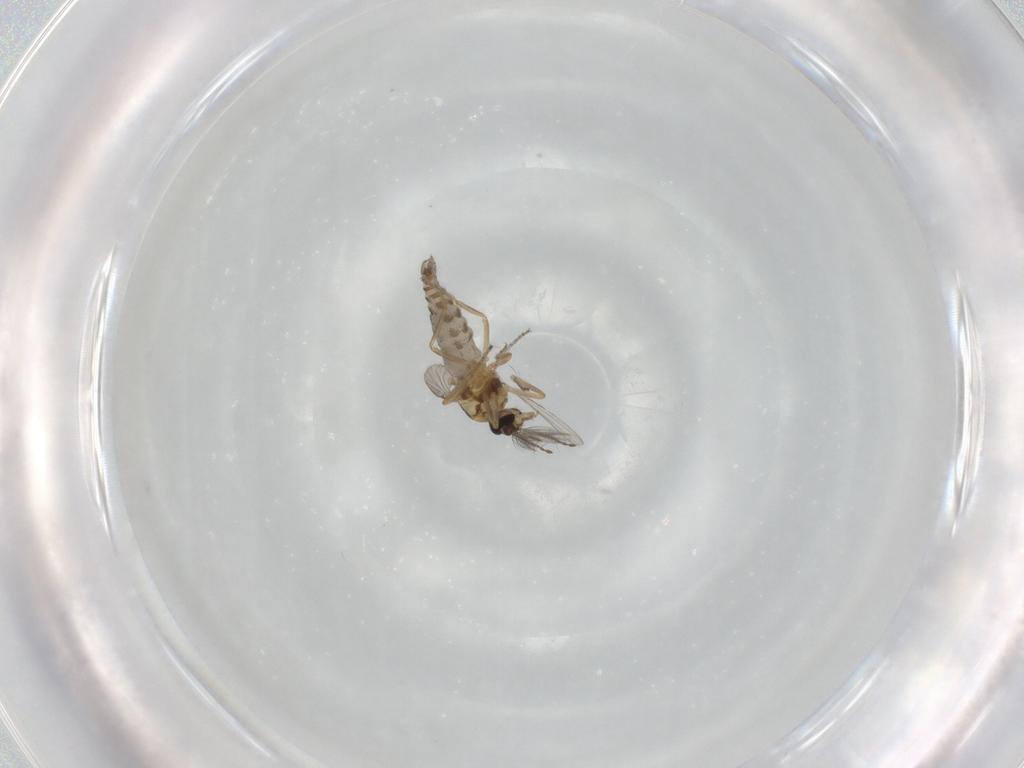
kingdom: Animalia
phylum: Arthropoda
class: Insecta
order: Diptera
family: Ceratopogonidae
